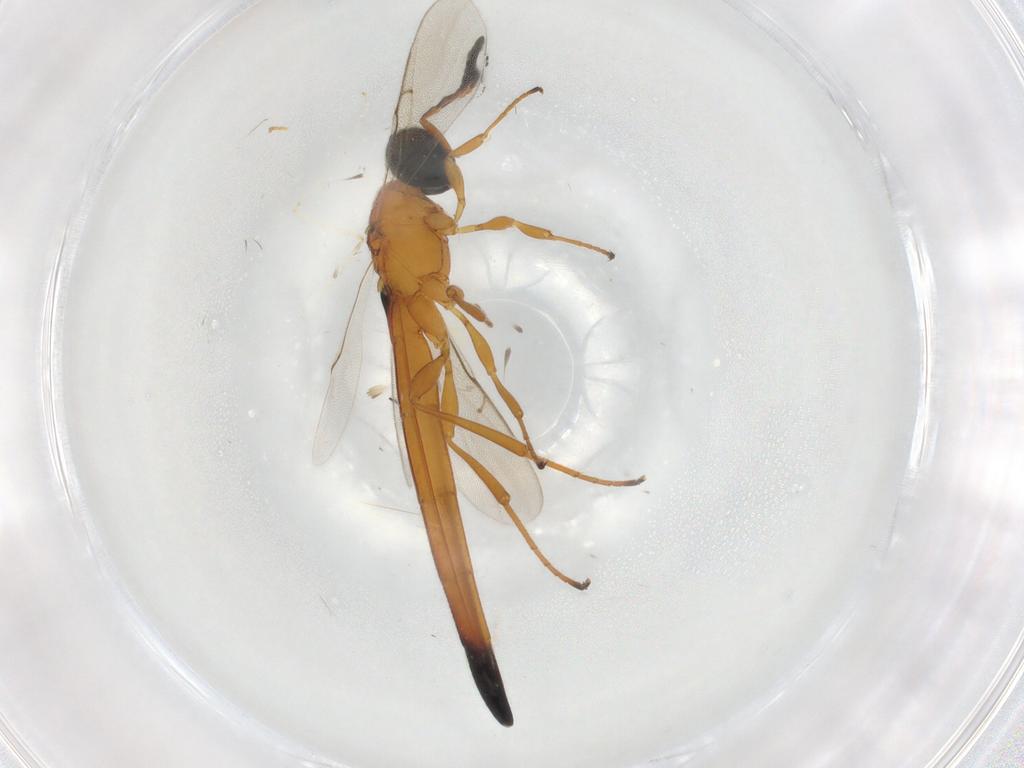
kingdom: Animalia
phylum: Arthropoda
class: Insecta
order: Hymenoptera
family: Scelionidae
